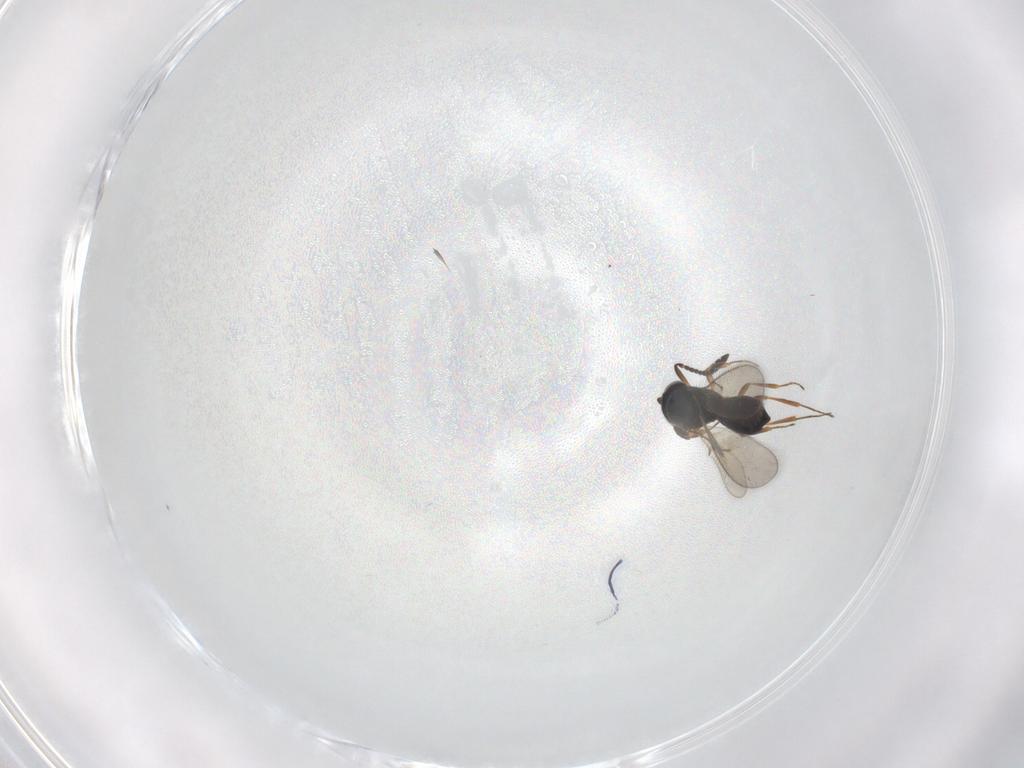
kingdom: Animalia
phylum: Arthropoda
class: Insecta
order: Hymenoptera
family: Scelionidae
